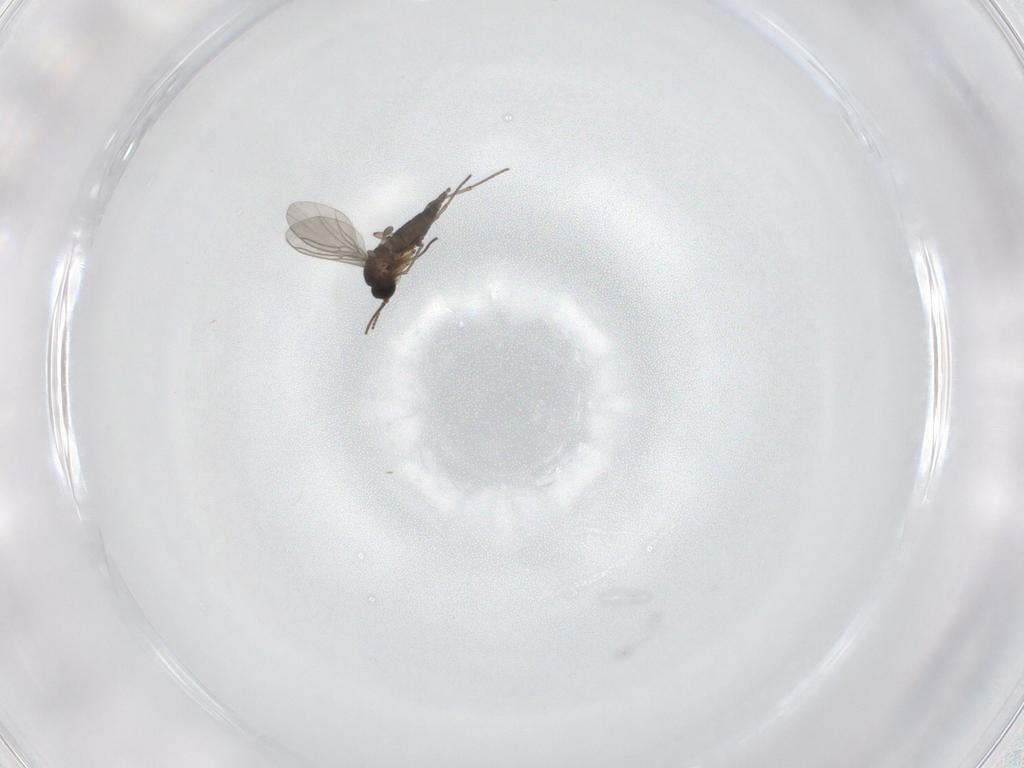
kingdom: Animalia
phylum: Arthropoda
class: Insecta
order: Diptera
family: Sciaridae
